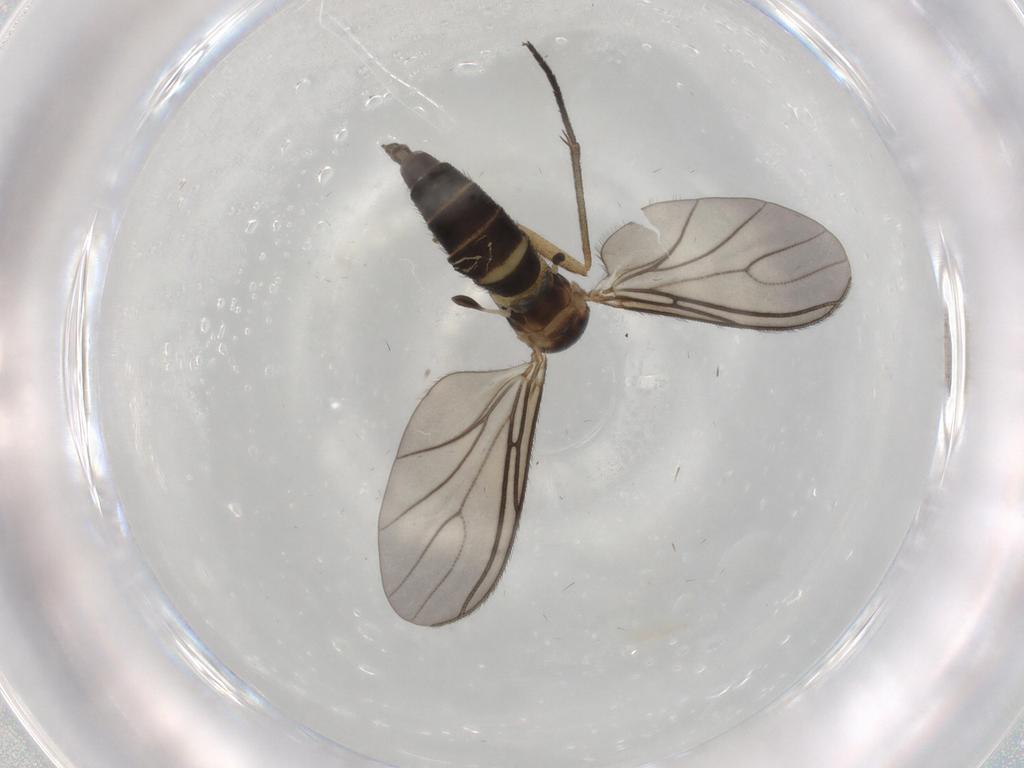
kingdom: Animalia
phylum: Arthropoda
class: Insecta
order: Diptera
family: Sciaridae
